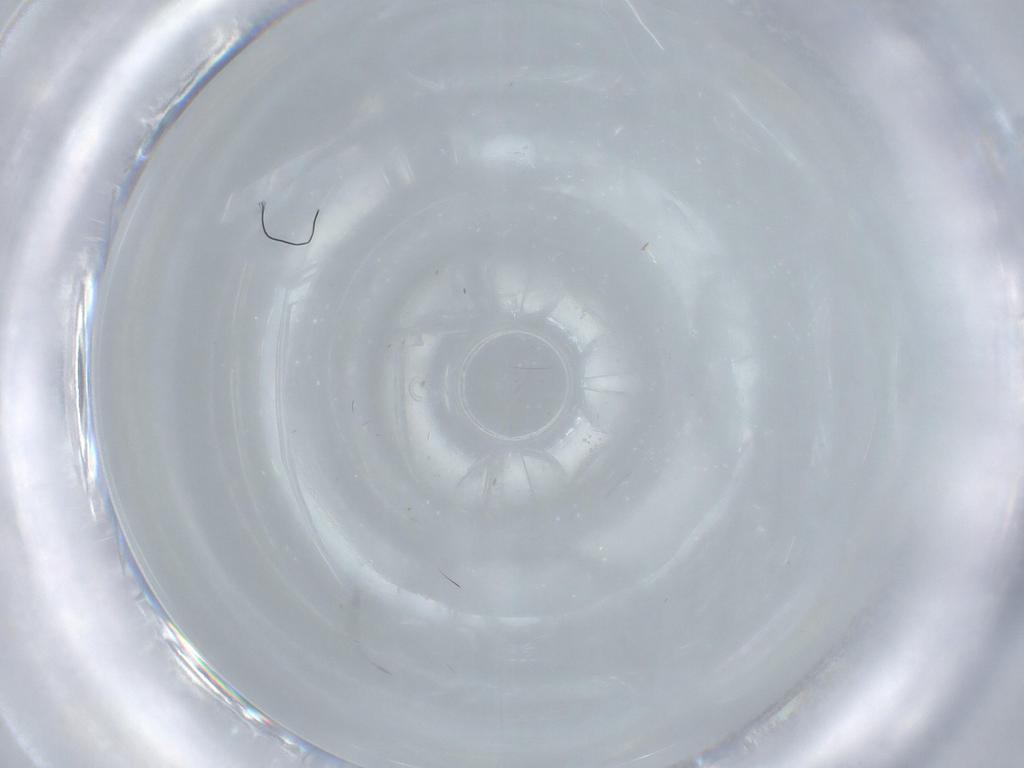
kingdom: Animalia
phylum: Arthropoda
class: Insecta
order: Diptera
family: Anthomyiidae
